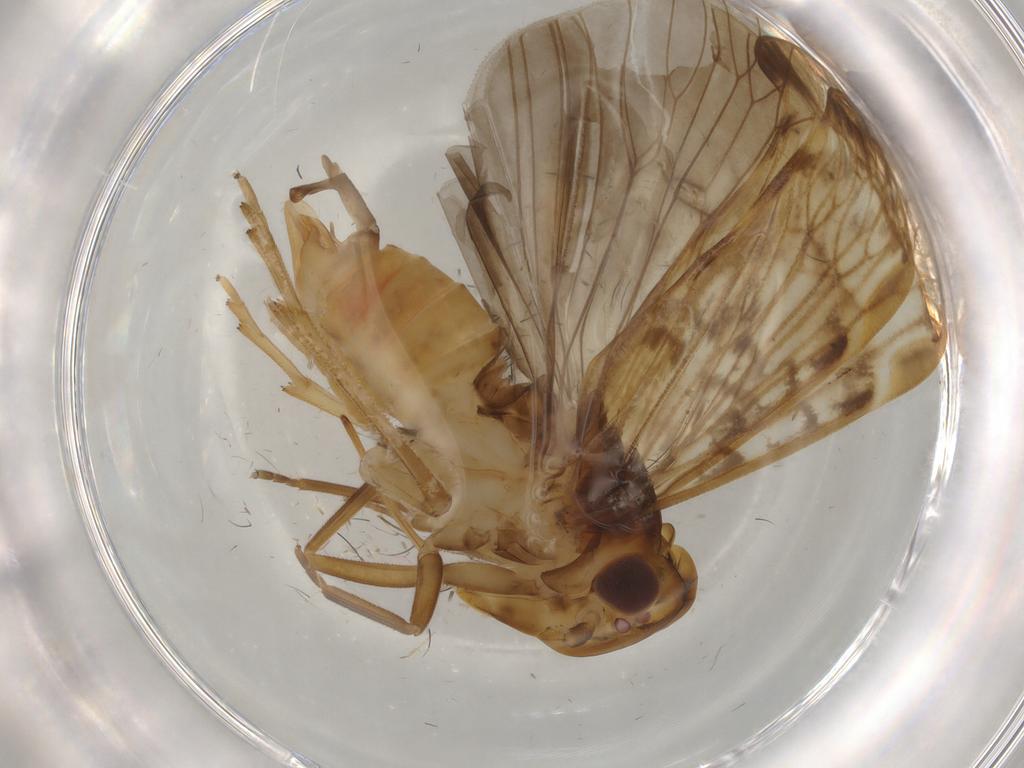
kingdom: Animalia
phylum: Arthropoda
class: Insecta
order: Hemiptera
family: Cixiidae
